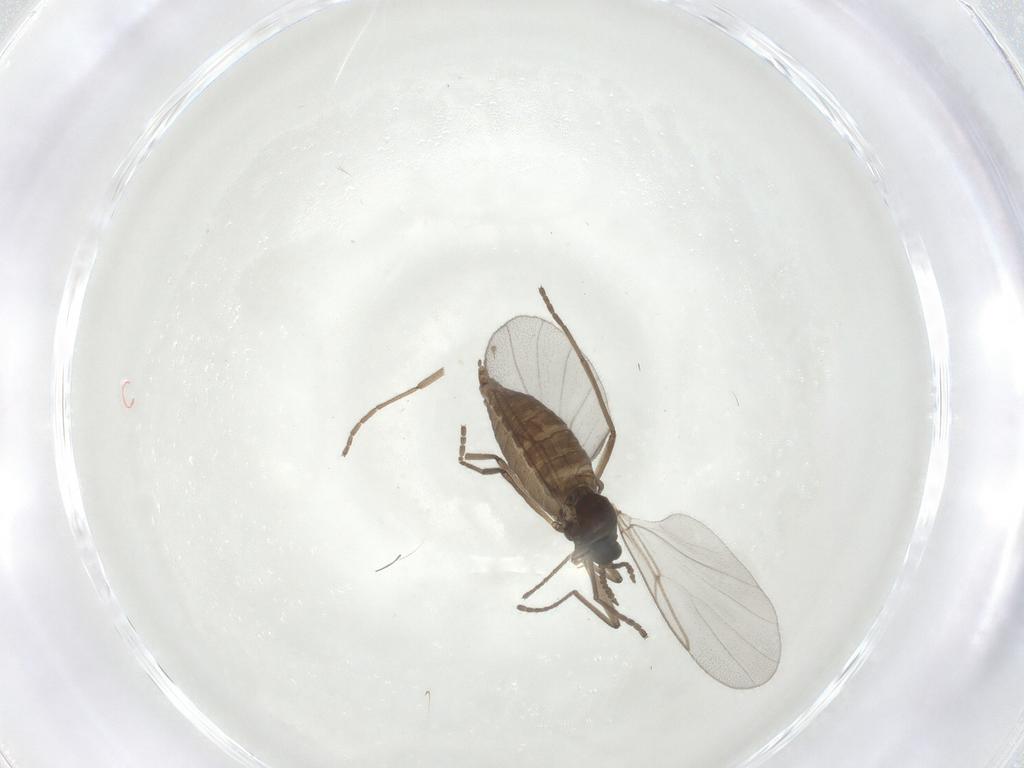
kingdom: Animalia
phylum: Arthropoda
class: Insecta
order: Diptera
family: Cecidomyiidae
